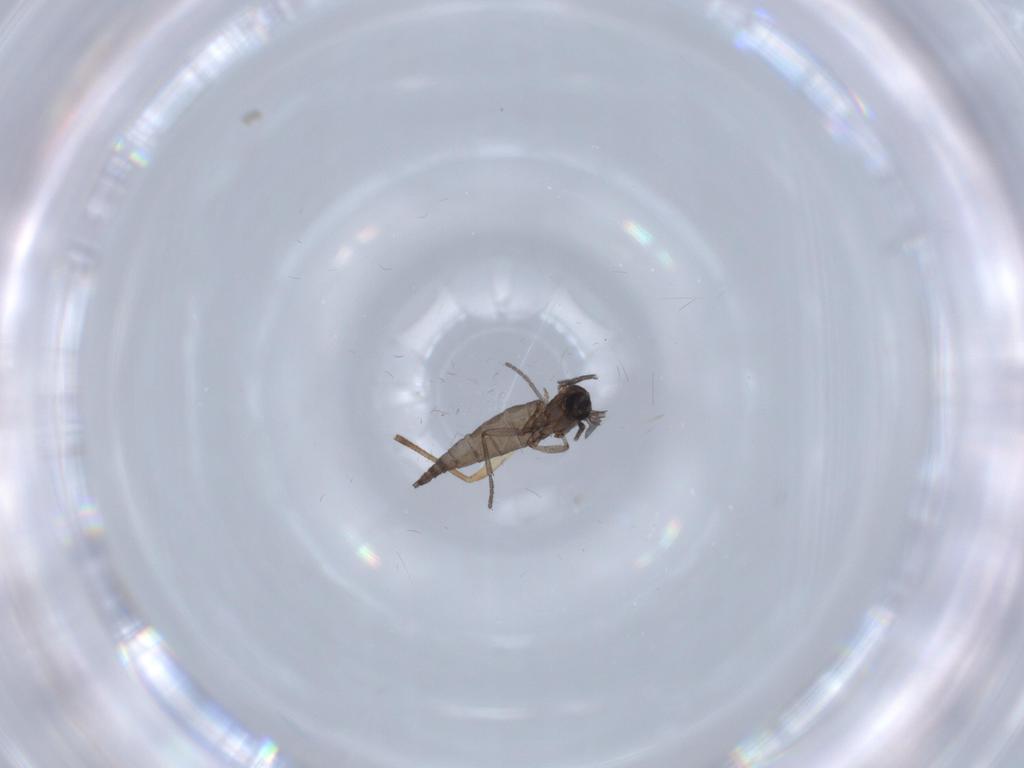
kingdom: Animalia
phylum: Arthropoda
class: Insecta
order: Diptera
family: Sciaridae
